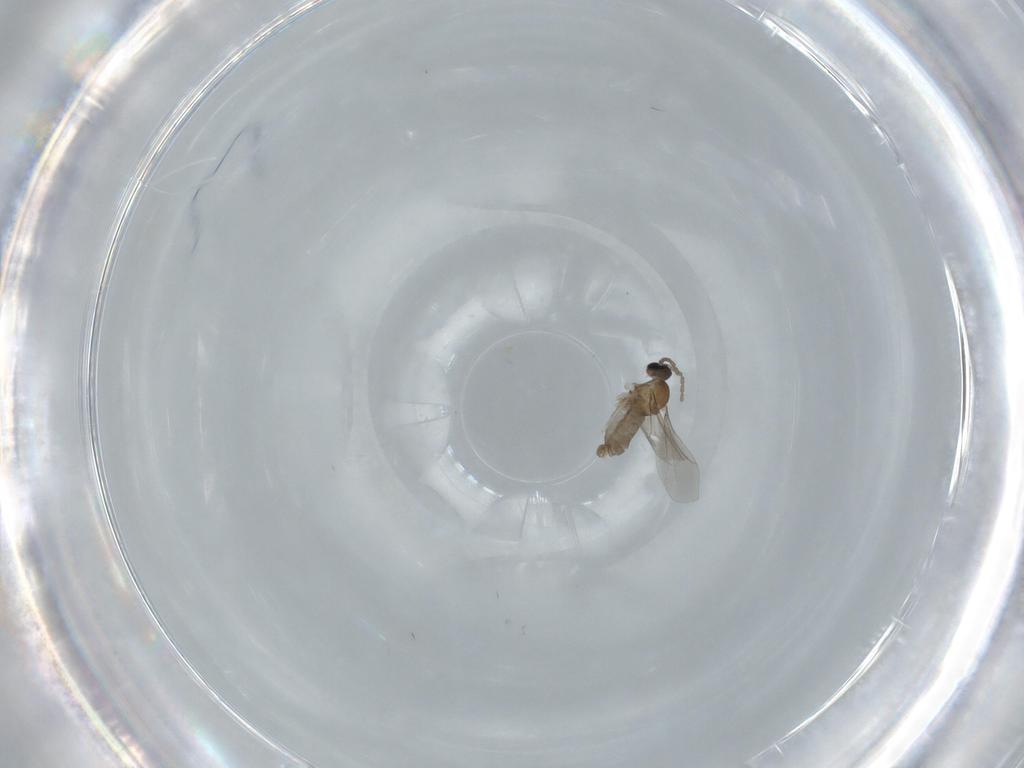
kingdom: Animalia
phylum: Arthropoda
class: Insecta
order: Diptera
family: Cecidomyiidae
